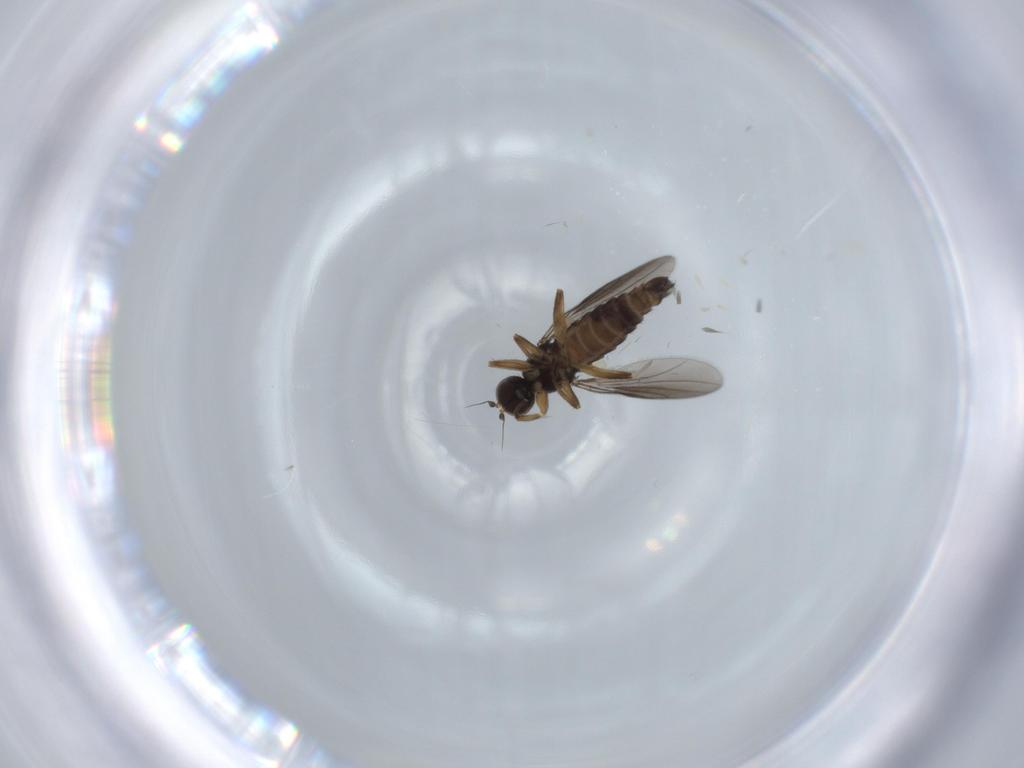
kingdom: Animalia
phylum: Arthropoda
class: Insecta
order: Diptera
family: Hybotidae
